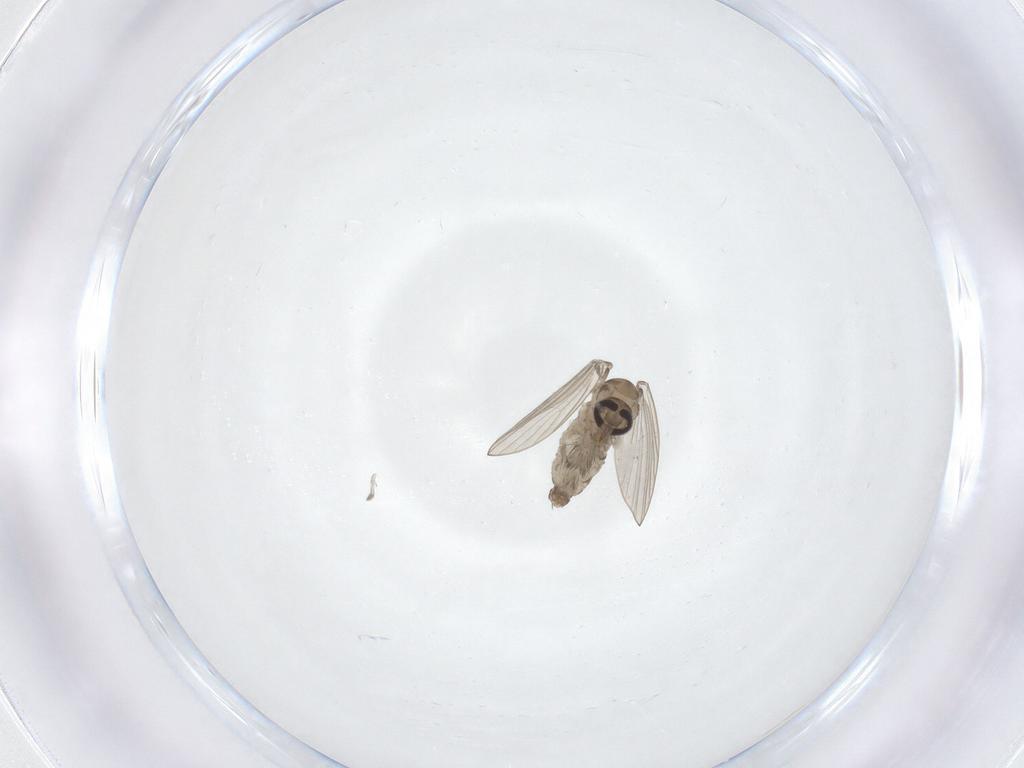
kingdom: Animalia
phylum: Arthropoda
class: Insecta
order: Diptera
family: Psychodidae
